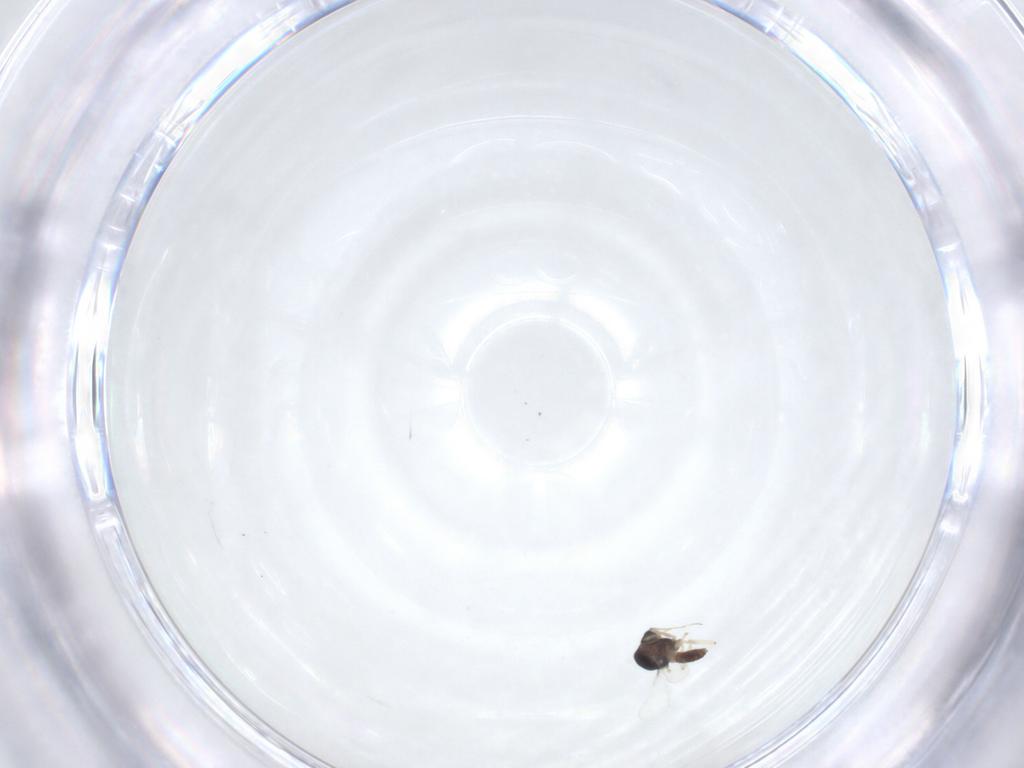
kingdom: Animalia
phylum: Arthropoda
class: Insecta
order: Diptera
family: Chironomidae
